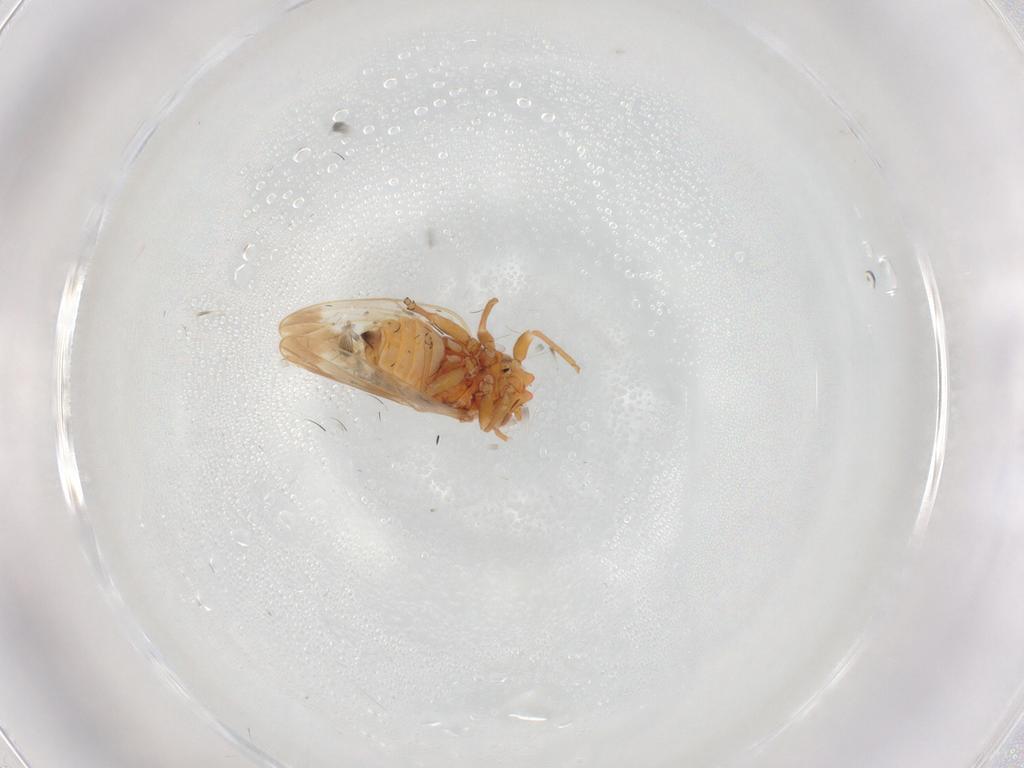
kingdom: Animalia
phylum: Arthropoda
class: Insecta
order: Hemiptera
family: Psyllidae
